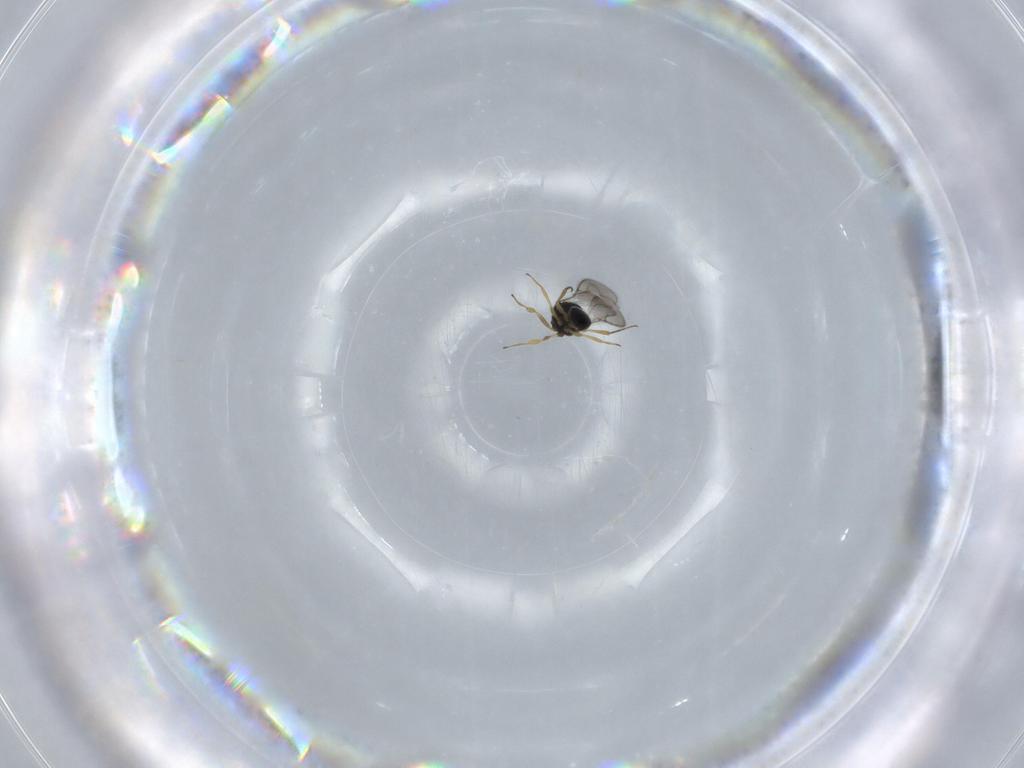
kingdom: Animalia
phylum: Arthropoda
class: Insecta
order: Hymenoptera
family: Scelionidae
